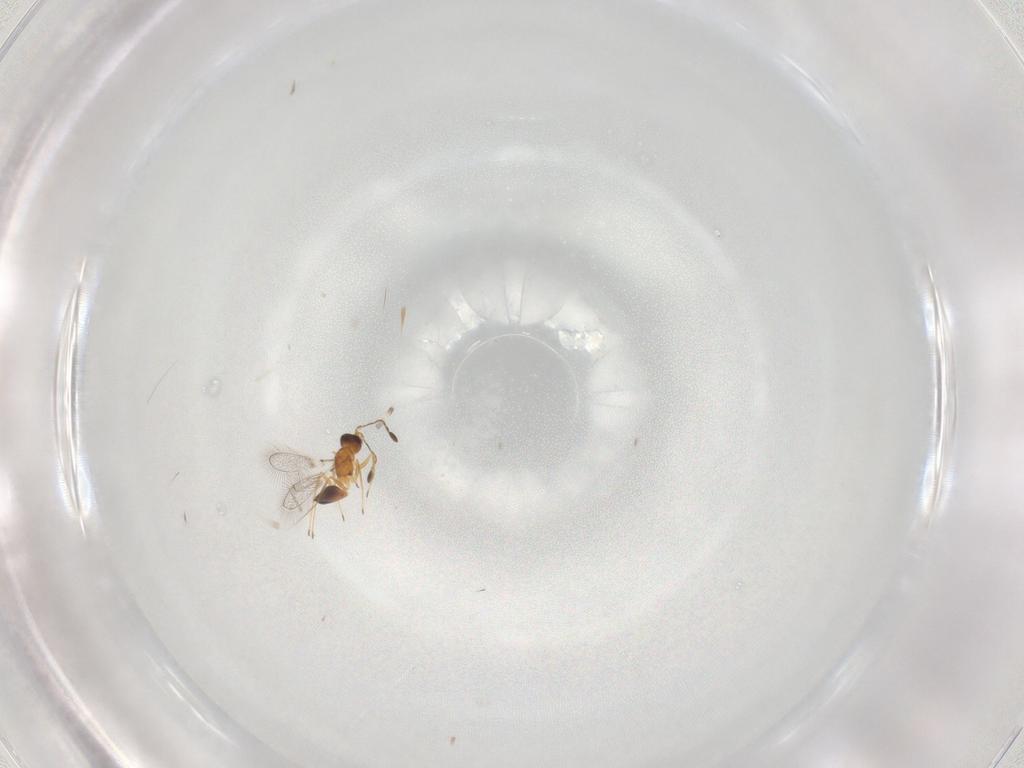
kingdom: Animalia
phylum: Arthropoda
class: Insecta
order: Hymenoptera
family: Mymaridae
